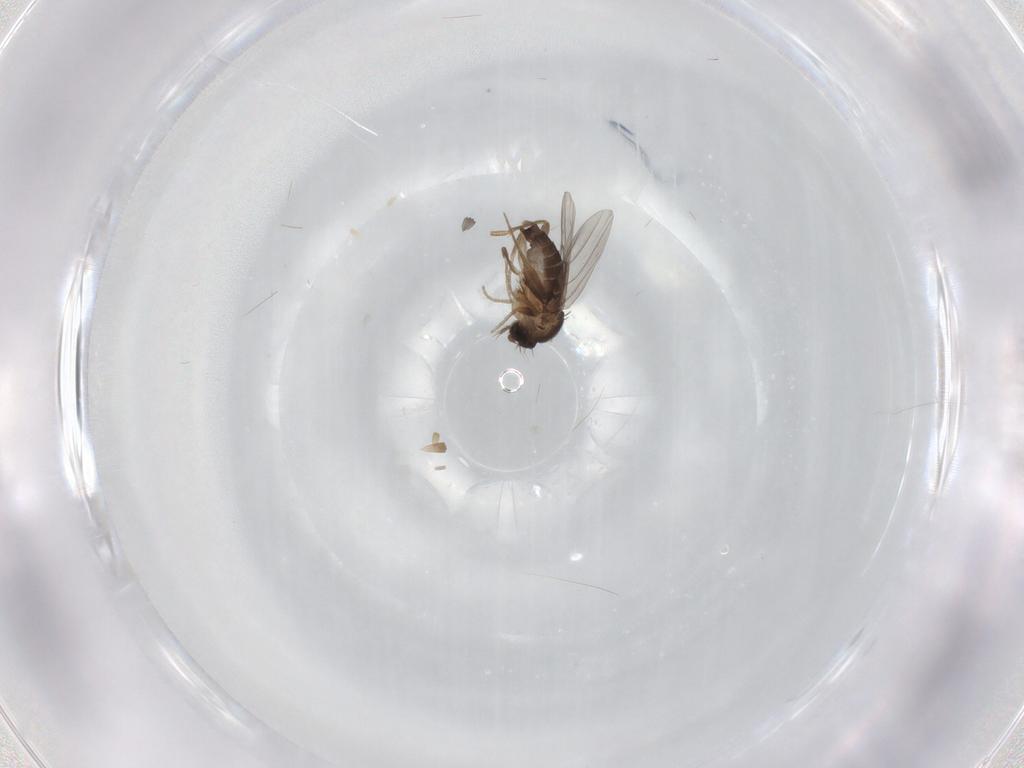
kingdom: Animalia
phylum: Arthropoda
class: Insecta
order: Diptera
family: Phoridae
